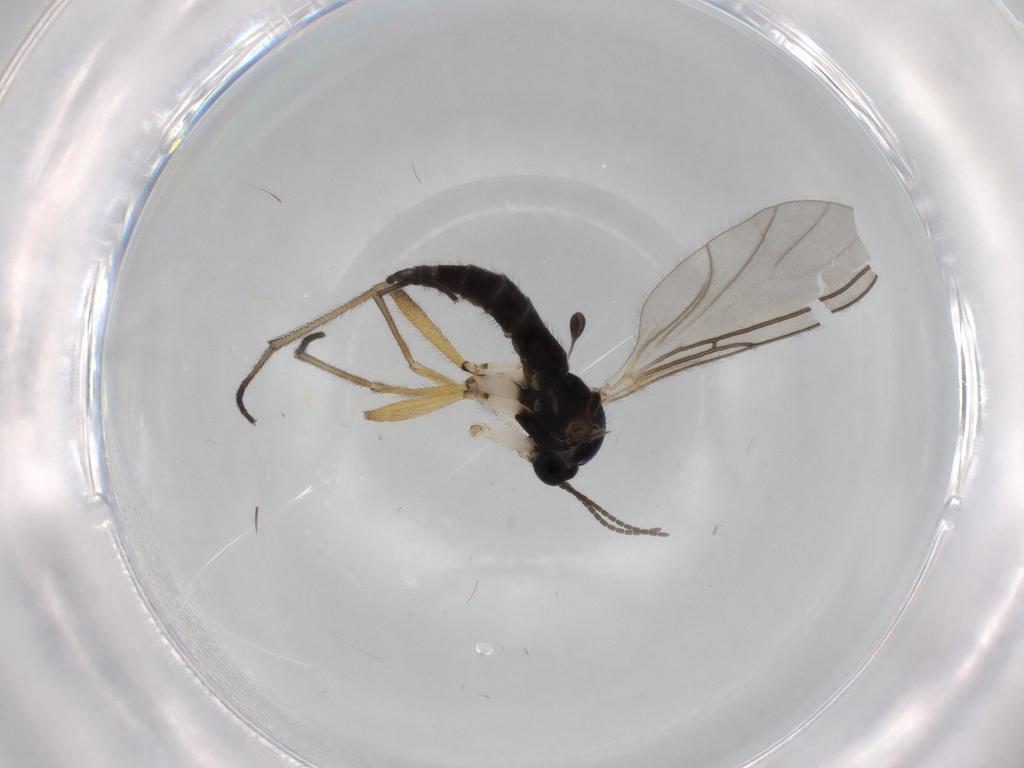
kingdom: Animalia
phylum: Arthropoda
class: Insecta
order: Diptera
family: Sciaridae
